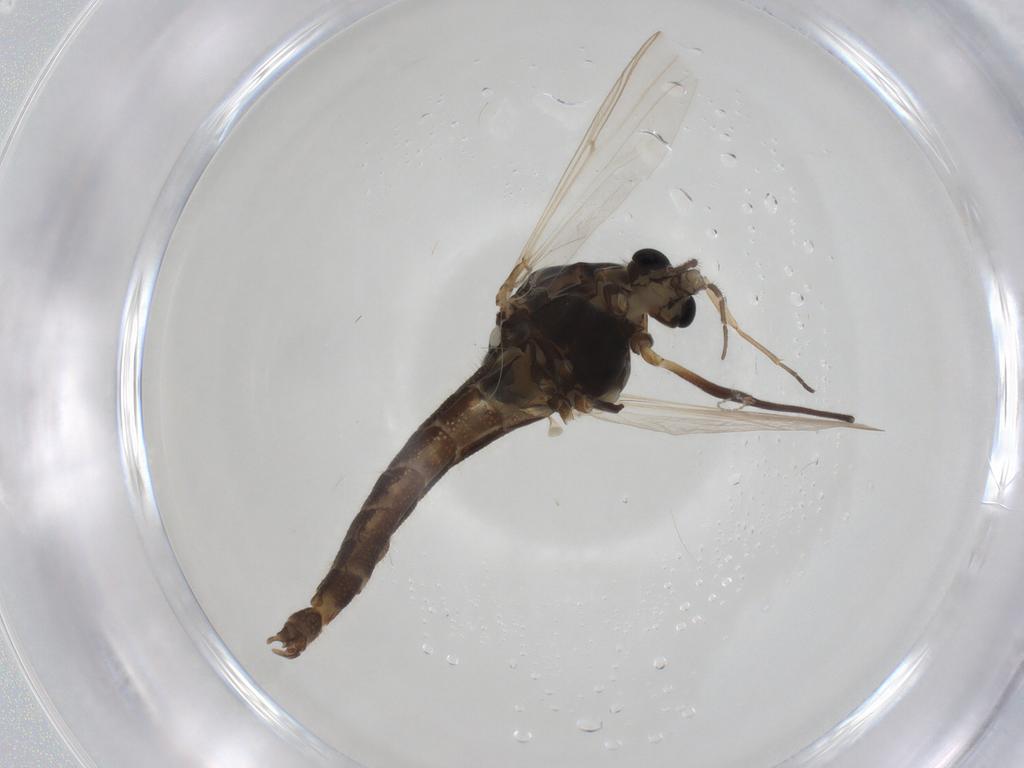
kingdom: Animalia
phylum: Arthropoda
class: Insecta
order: Diptera
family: Chironomidae
